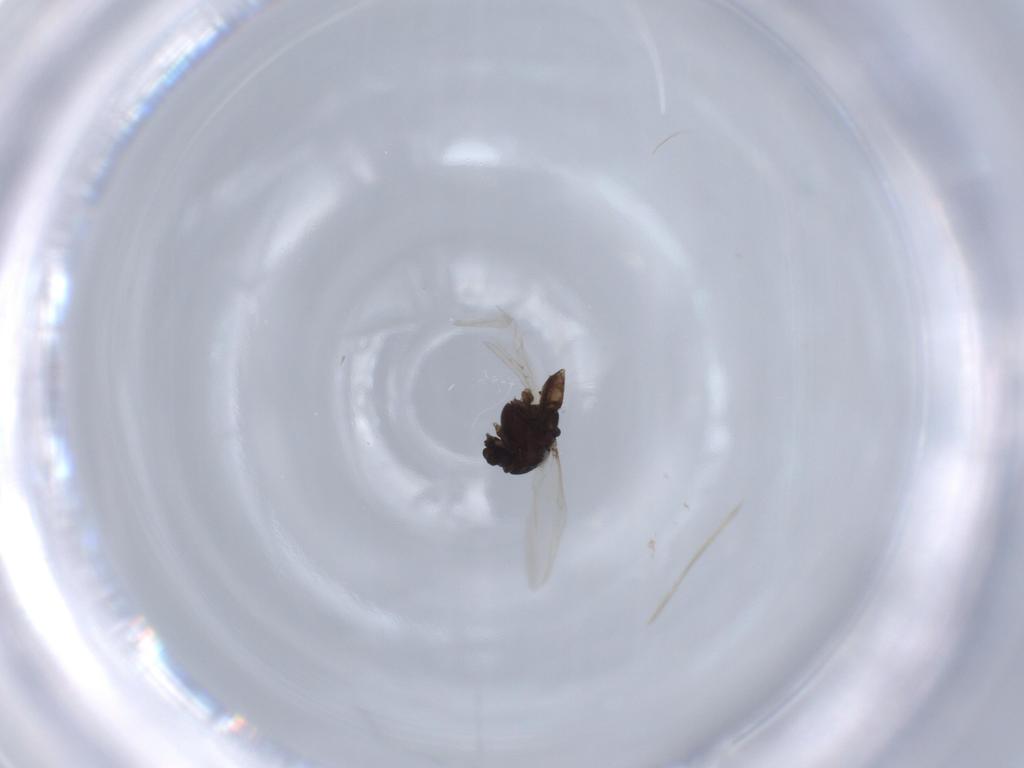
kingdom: Animalia
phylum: Arthropoda
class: Insecta
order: Diptera
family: Chironomidae
